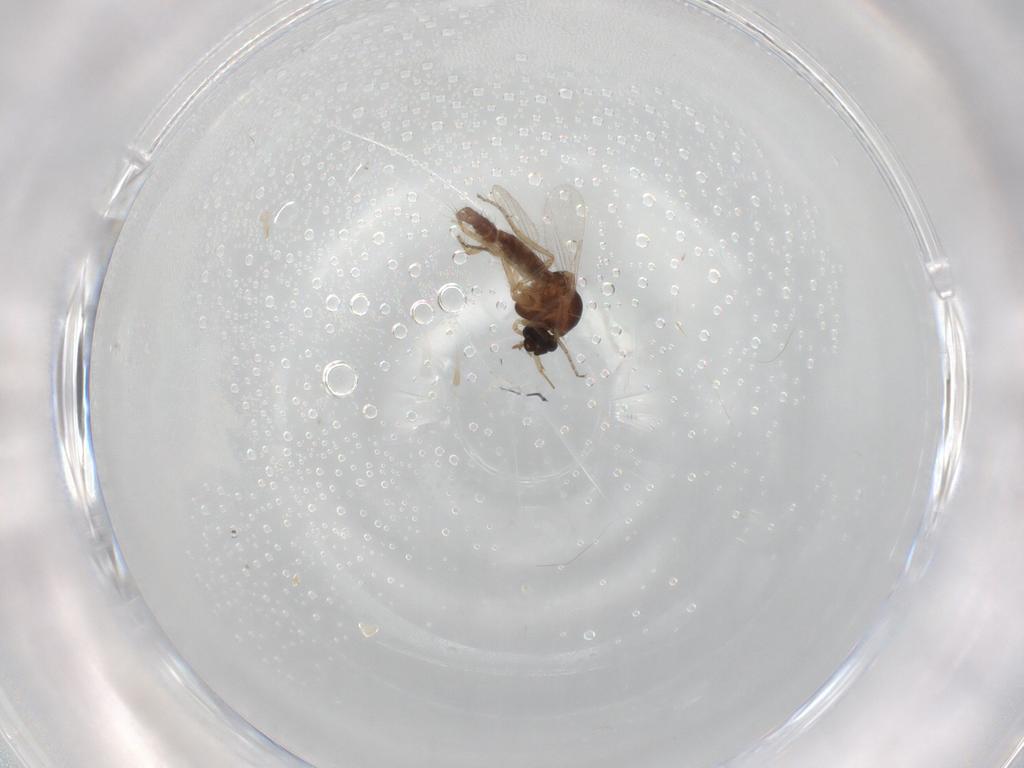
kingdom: Animalia
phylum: Arthropoda
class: Insecta
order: Diptera
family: Ceratopogonidae
